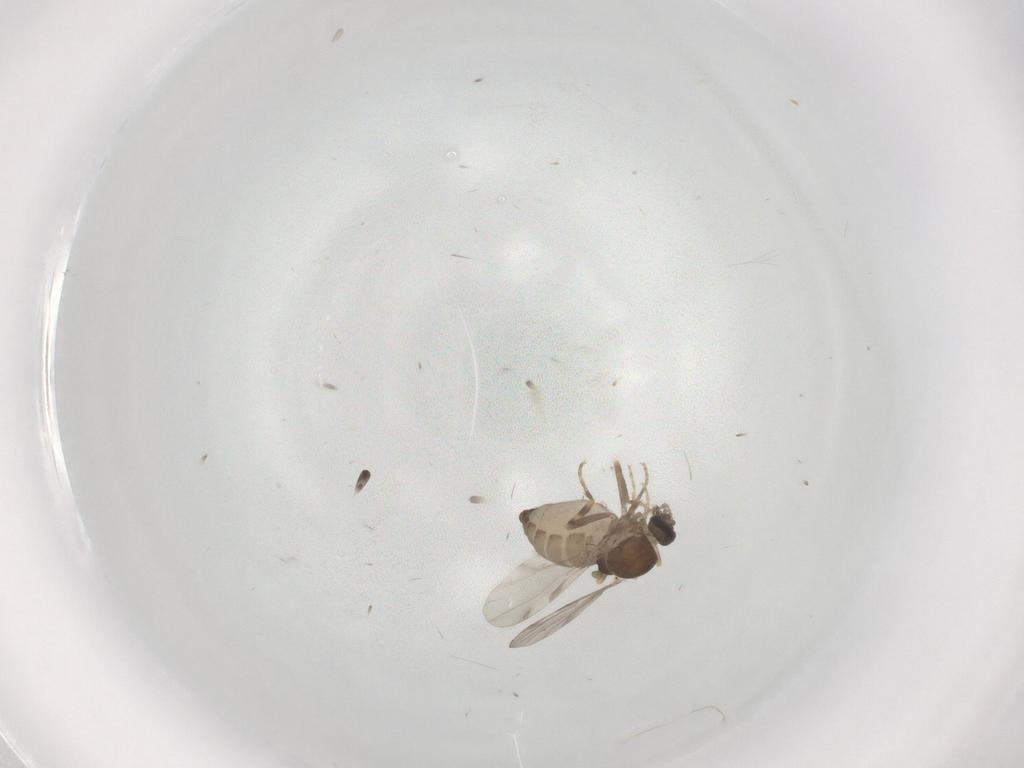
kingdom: Animalia
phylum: Arthropoda
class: Insecta
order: Diptera
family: Ceratopogonidae
